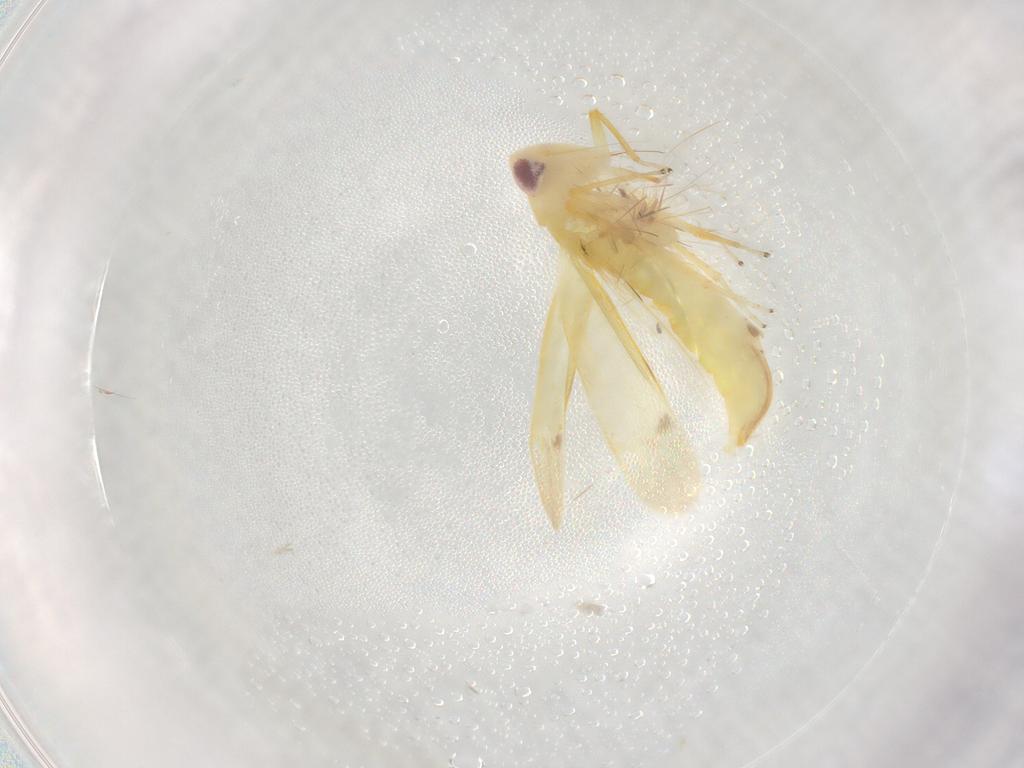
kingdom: Animalia
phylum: Arthropoda
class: Insecta
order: Hemiptera
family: Cicadellidae
